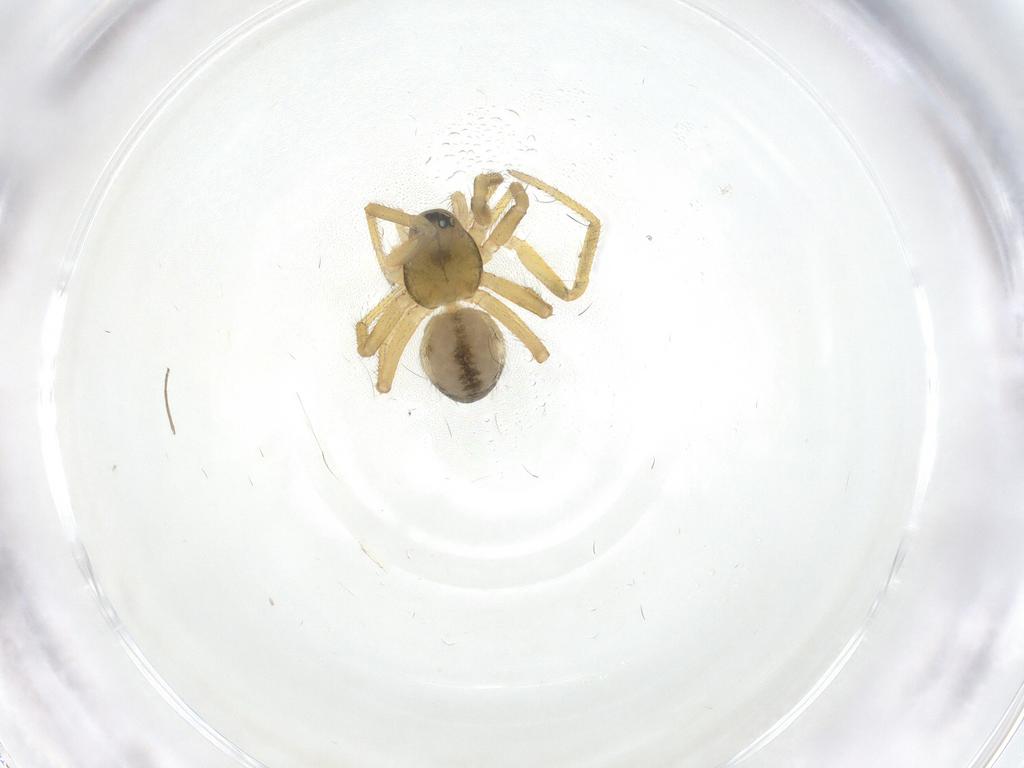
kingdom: Animalia
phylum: Arthropoda
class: Arachnida
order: Araneae
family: Linyphiidae
